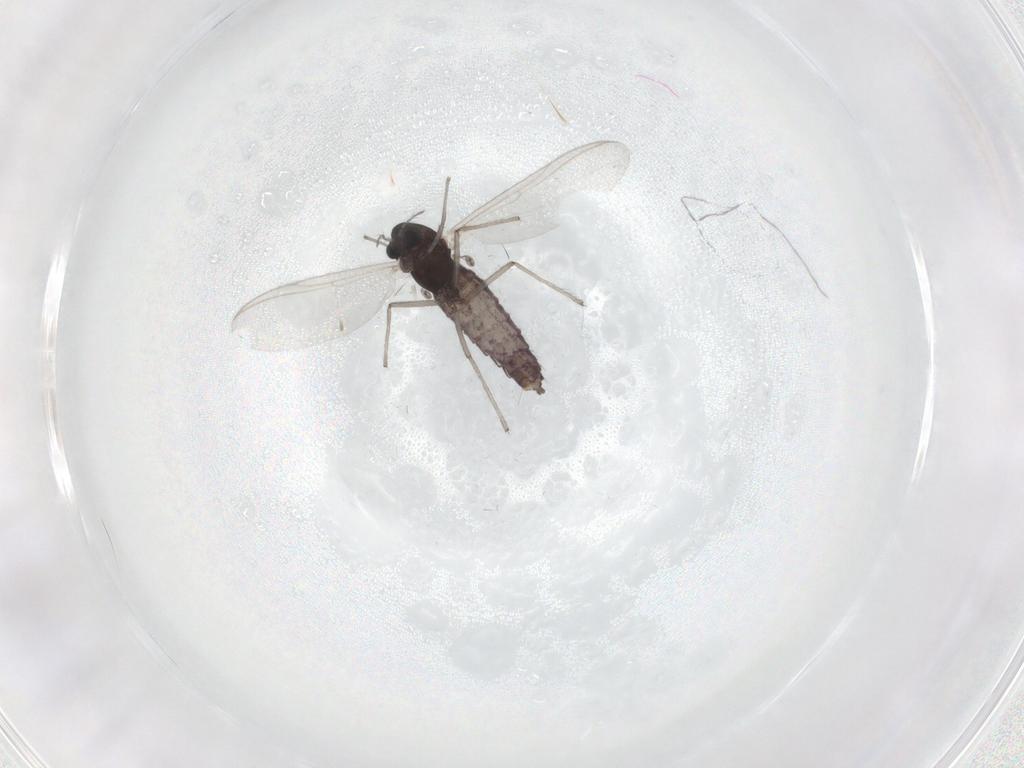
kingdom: Animalia
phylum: Arthropoda
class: Insecta
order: Diptera
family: Chironomidae
